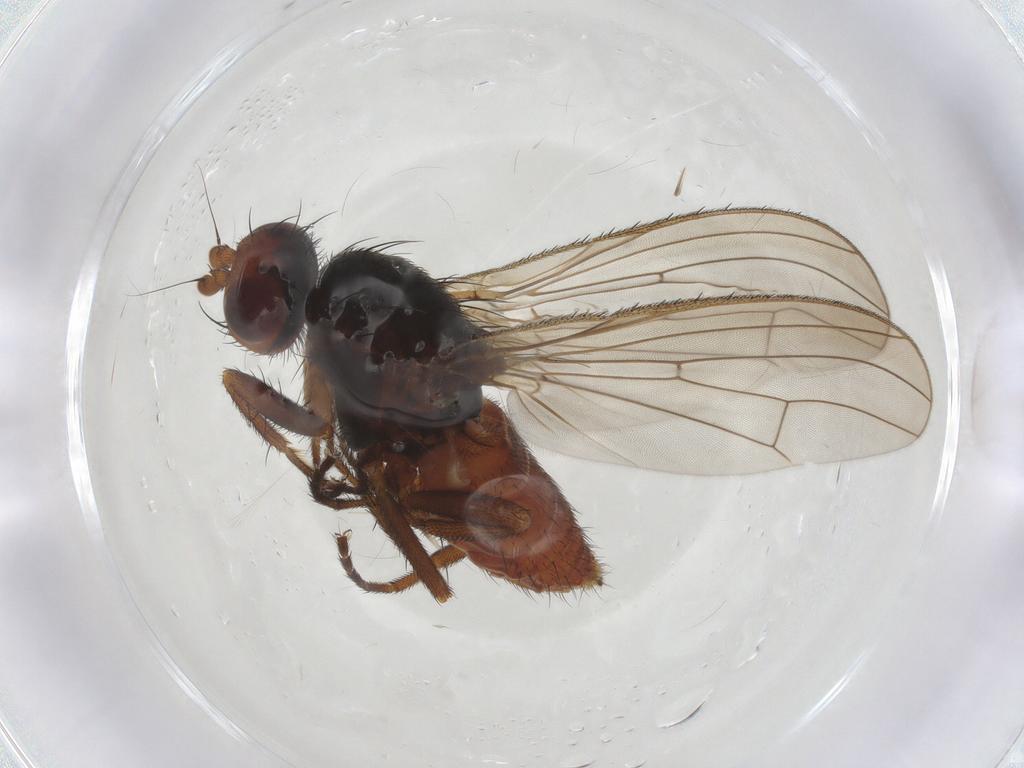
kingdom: Animalia
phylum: Arthropoda
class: Insecta
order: Diptera
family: Heleomyzidae
